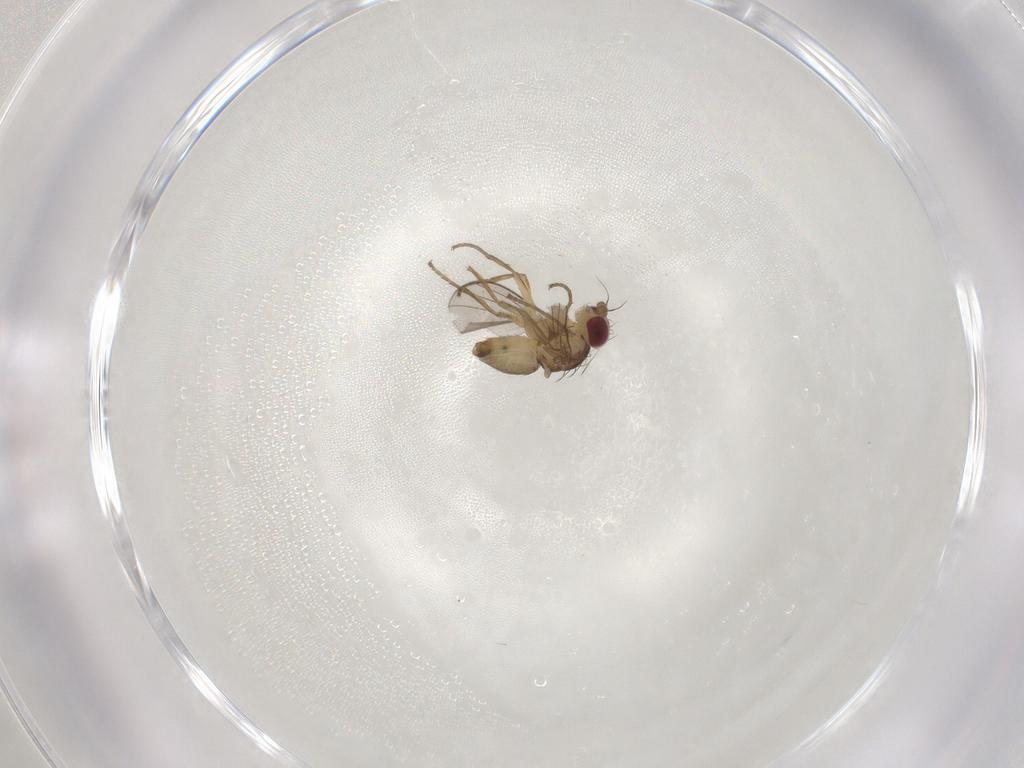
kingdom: Animalia
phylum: Arthropoda
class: Insecta
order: Diptera
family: Agromyzidae
